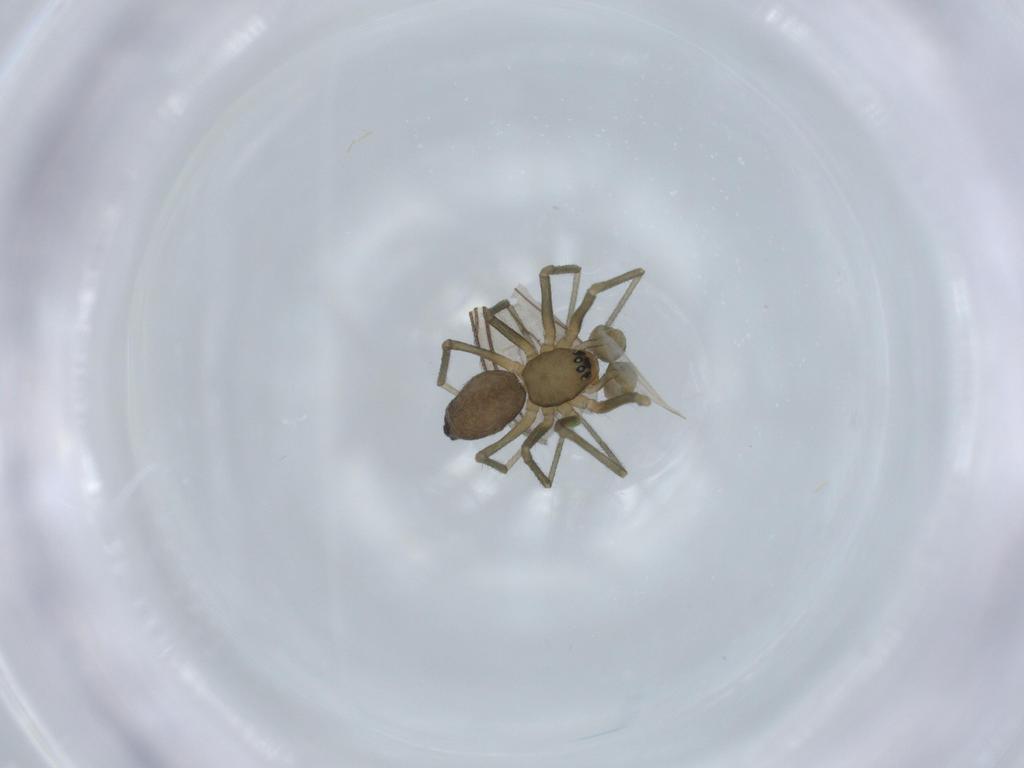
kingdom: Animalia
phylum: Arthropoda
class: Arachnida
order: Araneae
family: Linyphiidae
